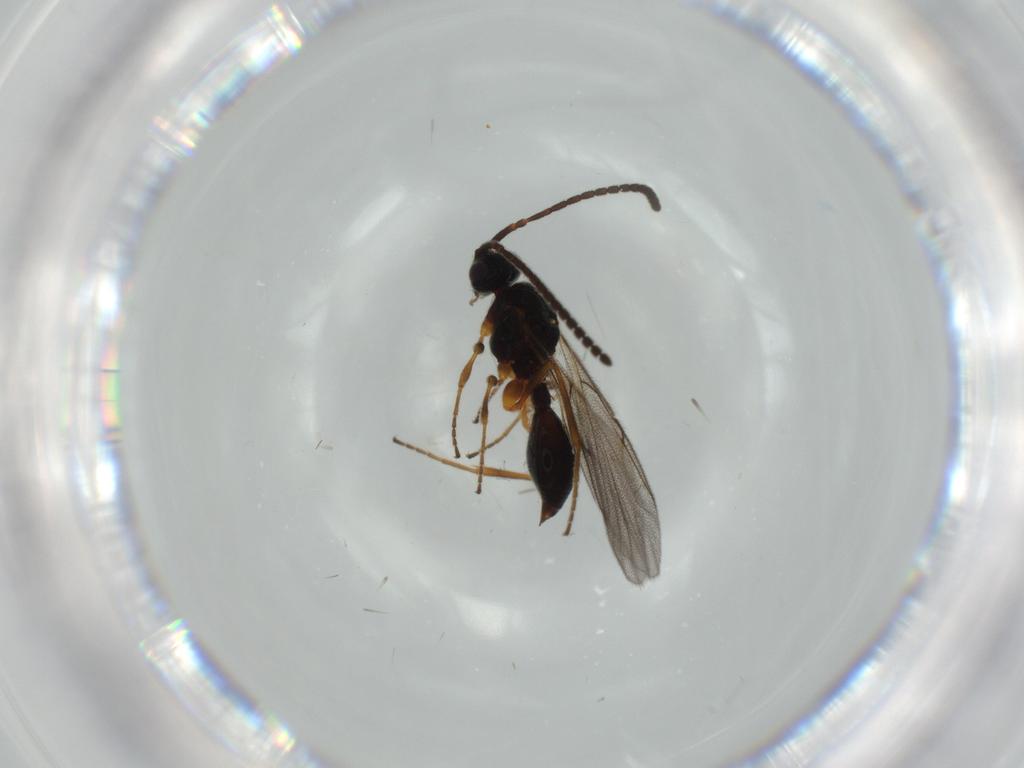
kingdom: Animalia
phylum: Arthropoda
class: Insecta
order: Hymenoptera
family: Diapriidae
